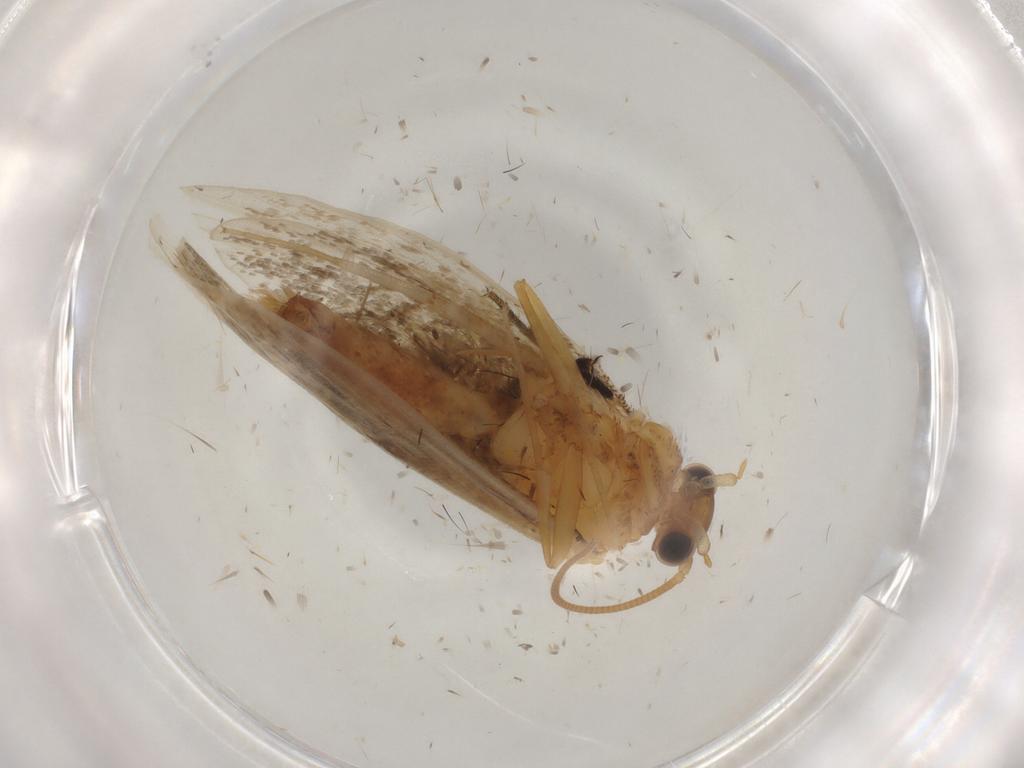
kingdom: Animalia
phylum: Arthropoda
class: Insecta
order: Lepidoptera
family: Nepticulidae
